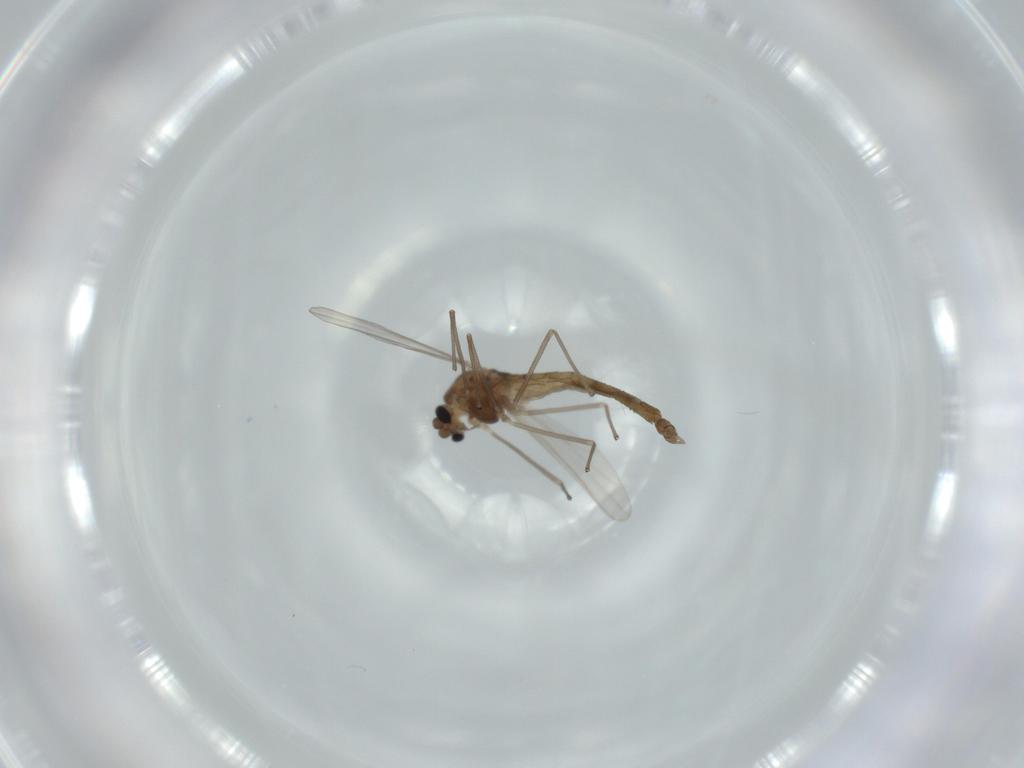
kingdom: Animalia
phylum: Arthropoda
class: Insecta
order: Diptera
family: Chironomidae
